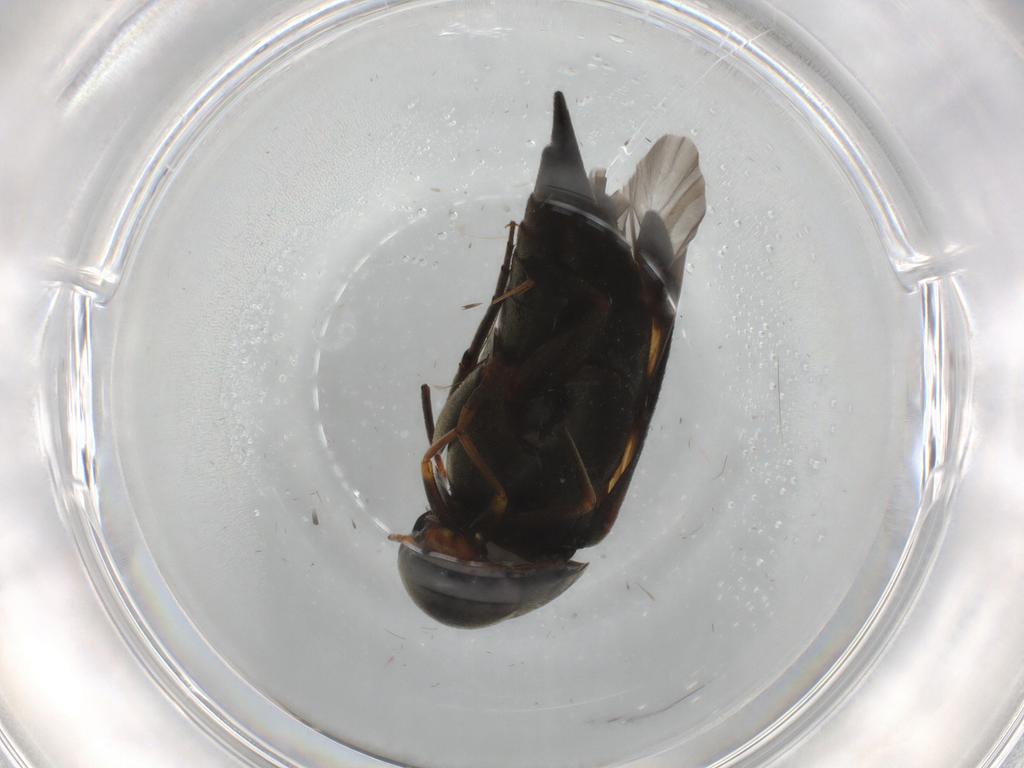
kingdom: Animalia
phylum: Arthropoda
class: Insecta
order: Coleoptera
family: Mordellidae
